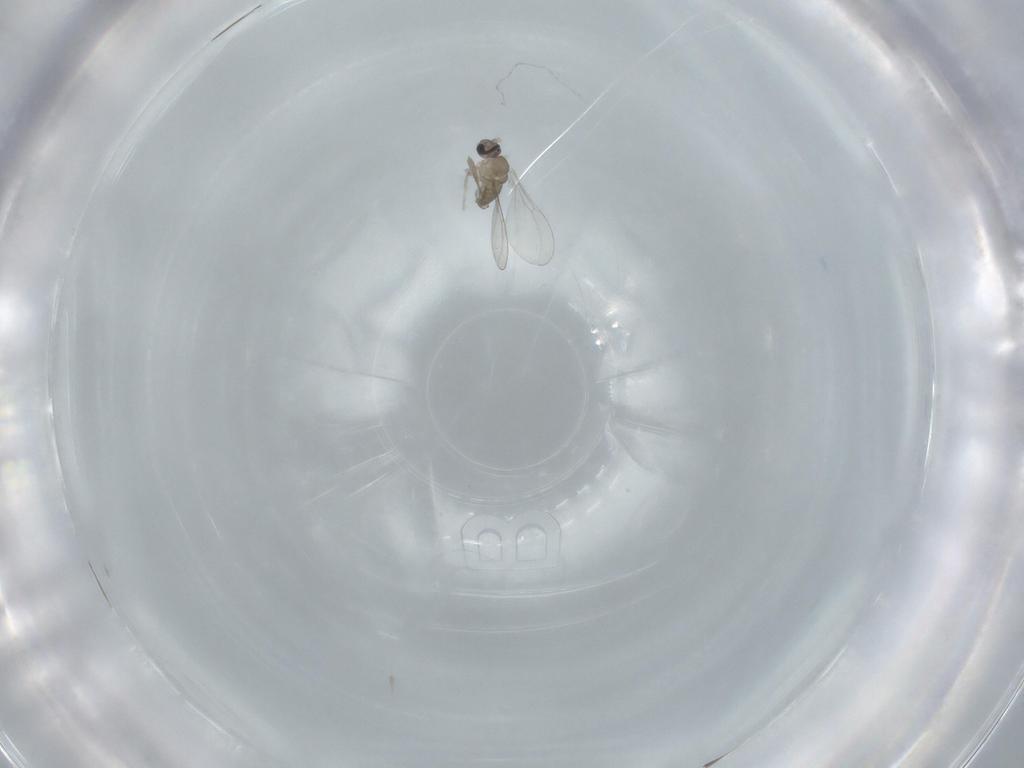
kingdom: Animalia
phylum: Arthropoda
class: Insecta
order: Diptera
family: Cecidomyiidae
